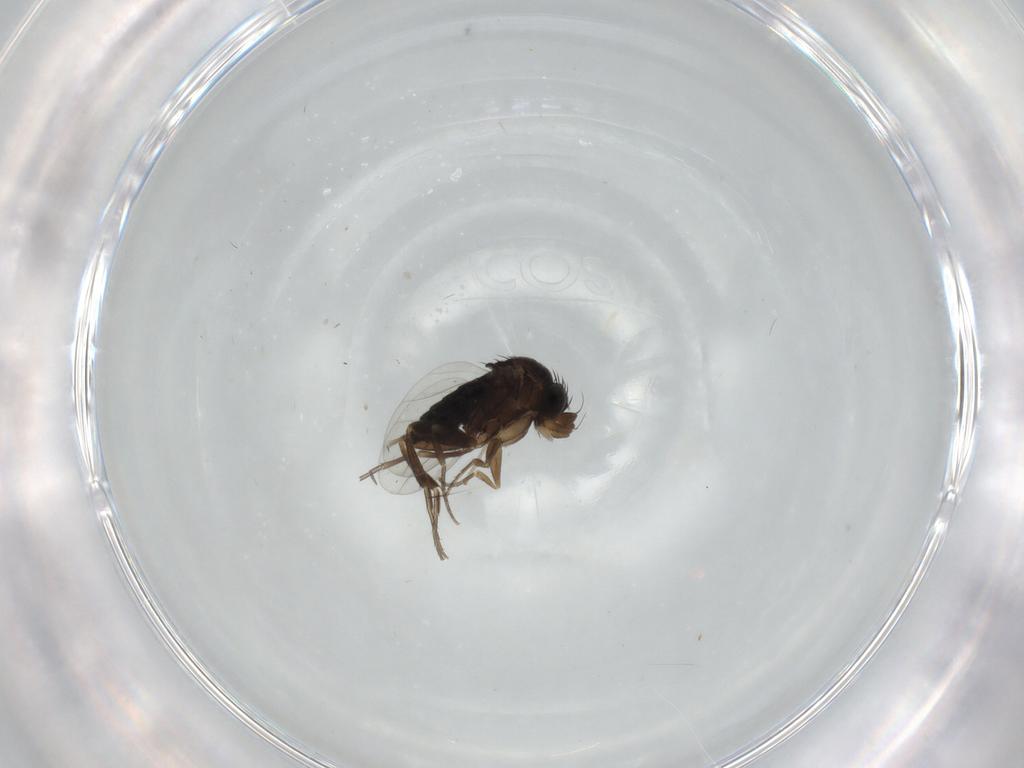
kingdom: Animalia
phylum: Arthropoda
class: Insecta
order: Diptera
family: Phoridae
